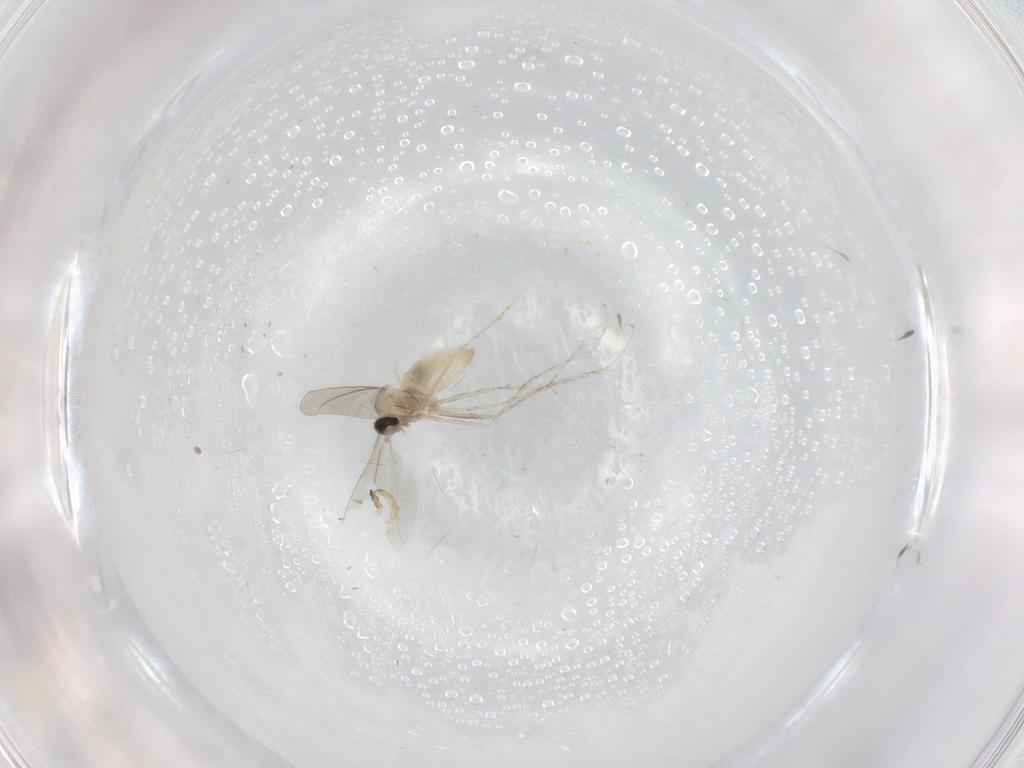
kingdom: Animalia
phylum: Arthropoda
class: Insecta
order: Diptera
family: Cecidomyiidae
